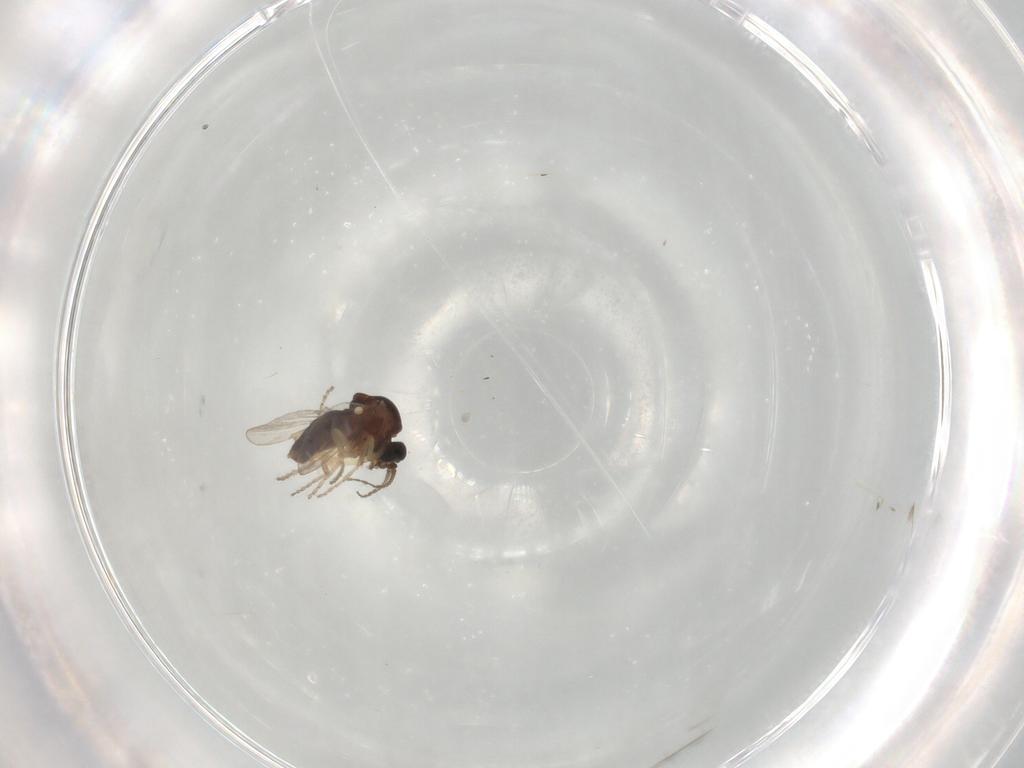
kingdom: Animalia
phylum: Arthropoda
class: Insecta
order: Diptera
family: Ceratopogonidae
